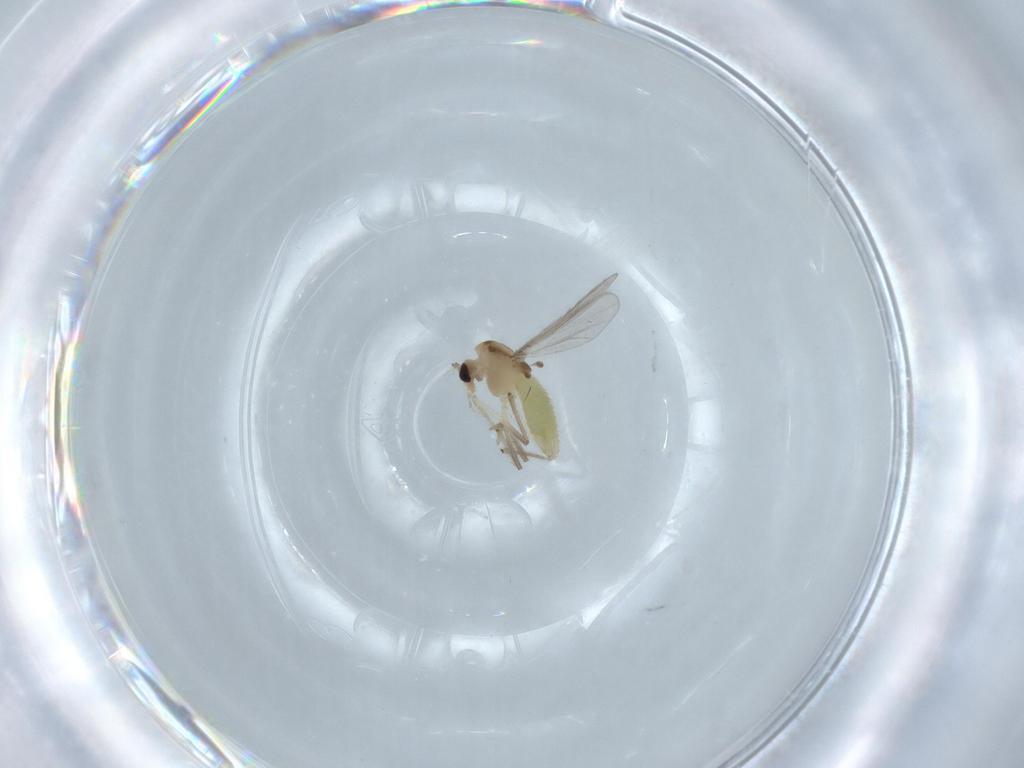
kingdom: Animalia
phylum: Arthropoda
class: Insecta
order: Diptera
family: Chironomidae
